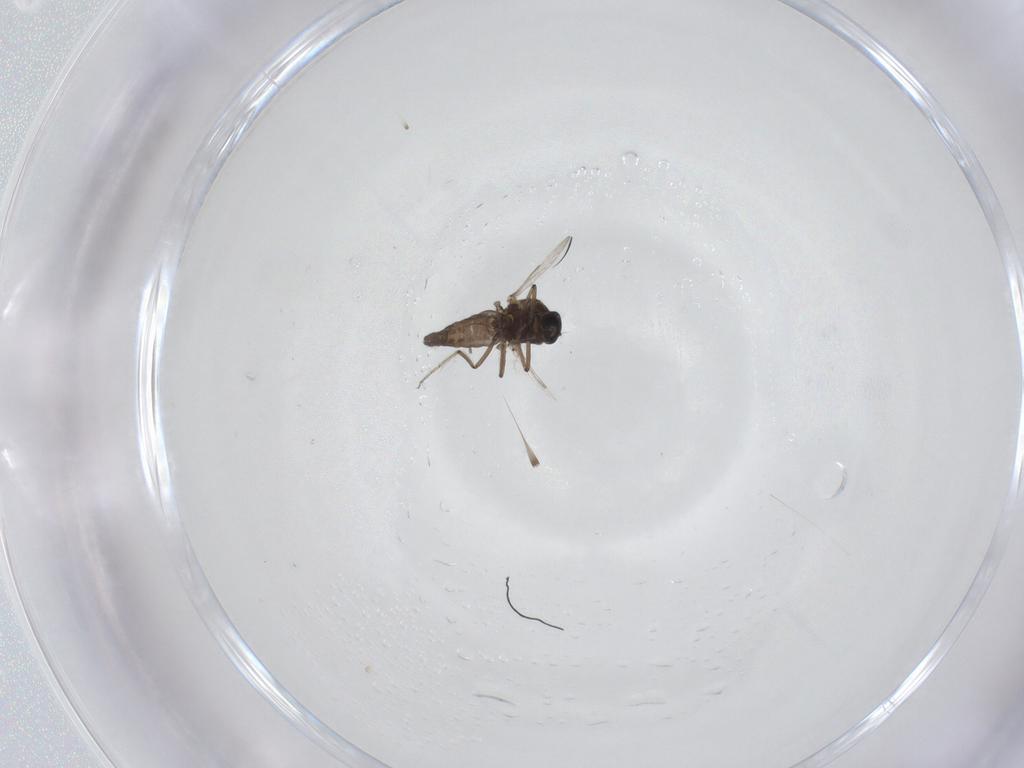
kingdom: Animalia
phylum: Arthropoda
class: Insecta
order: Diptera
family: Ceratopogonidae
